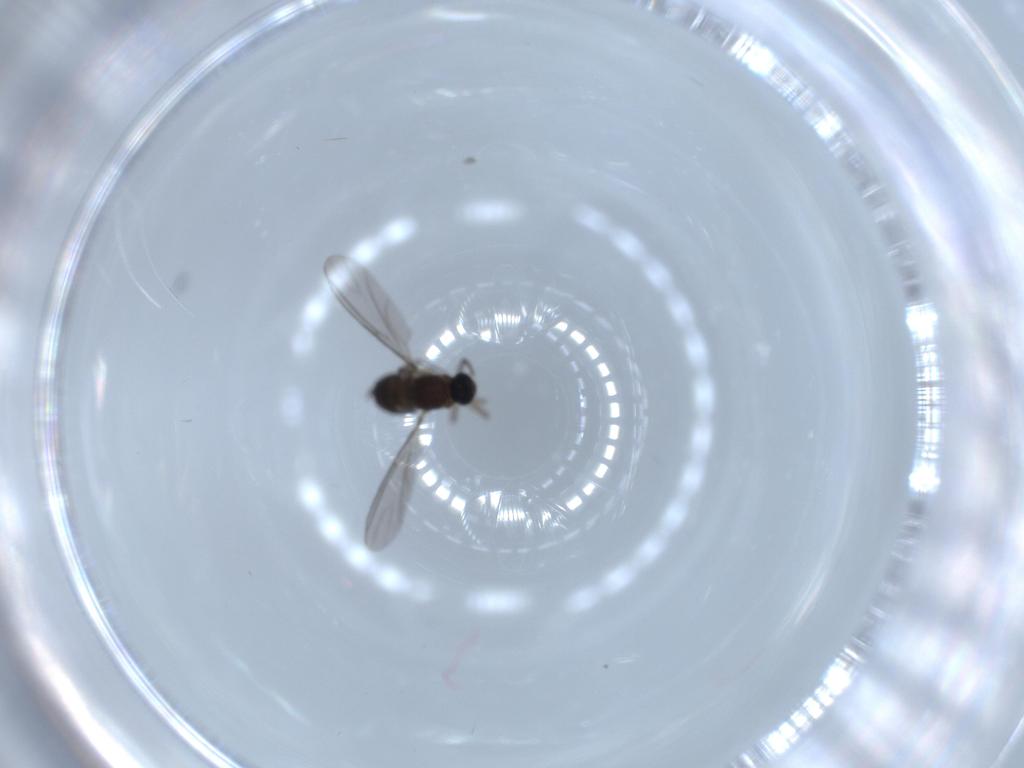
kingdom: Animalia
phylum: Arthropoda
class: Insecta
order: Diptera
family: Sciaridae
